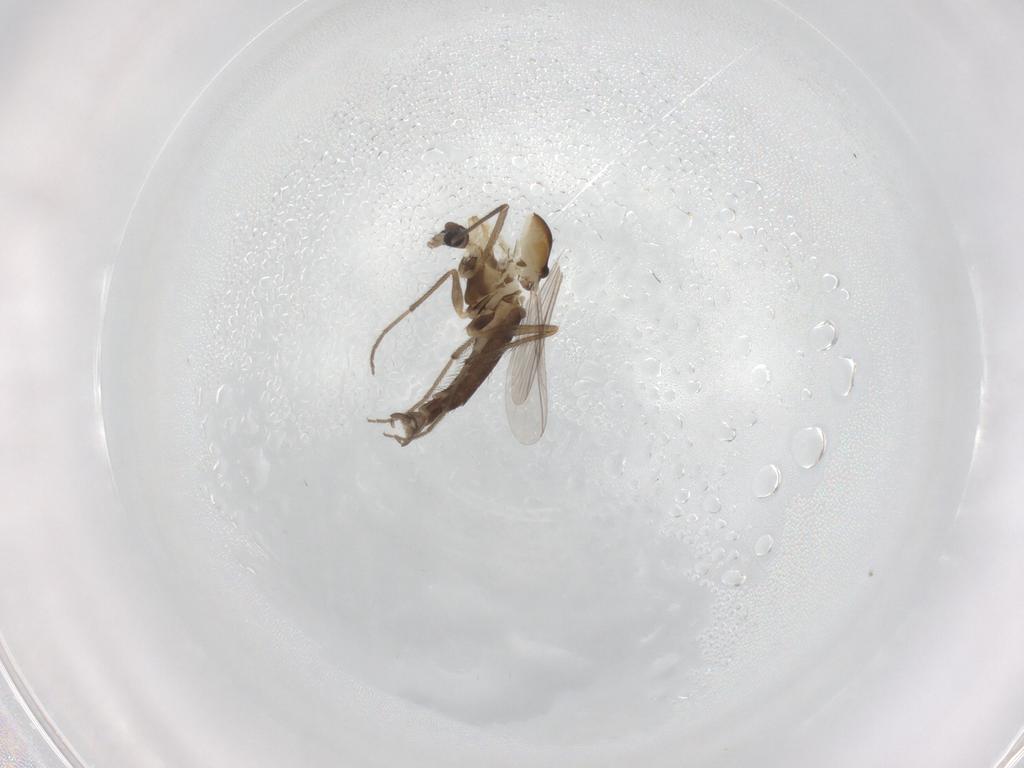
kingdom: Animalia
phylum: Arthropoda
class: Insecta
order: Diptera
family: Chironomidae
